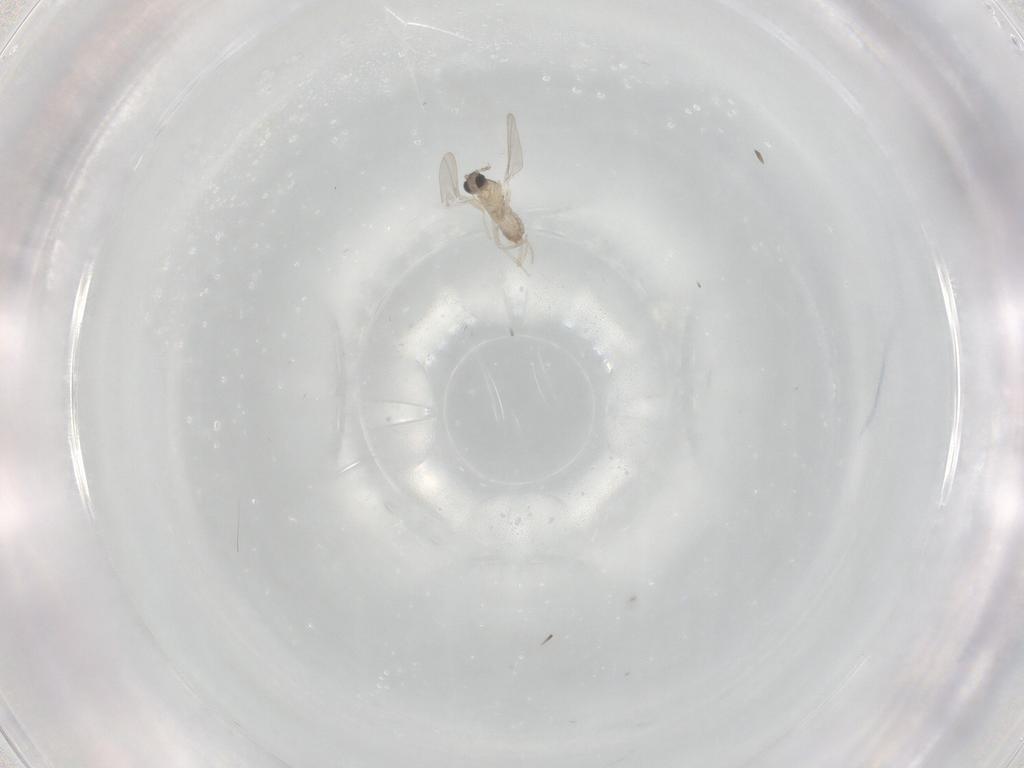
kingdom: Animalia
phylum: Arthropoda
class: Insecta
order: Diptera
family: Cecidomyiidae
